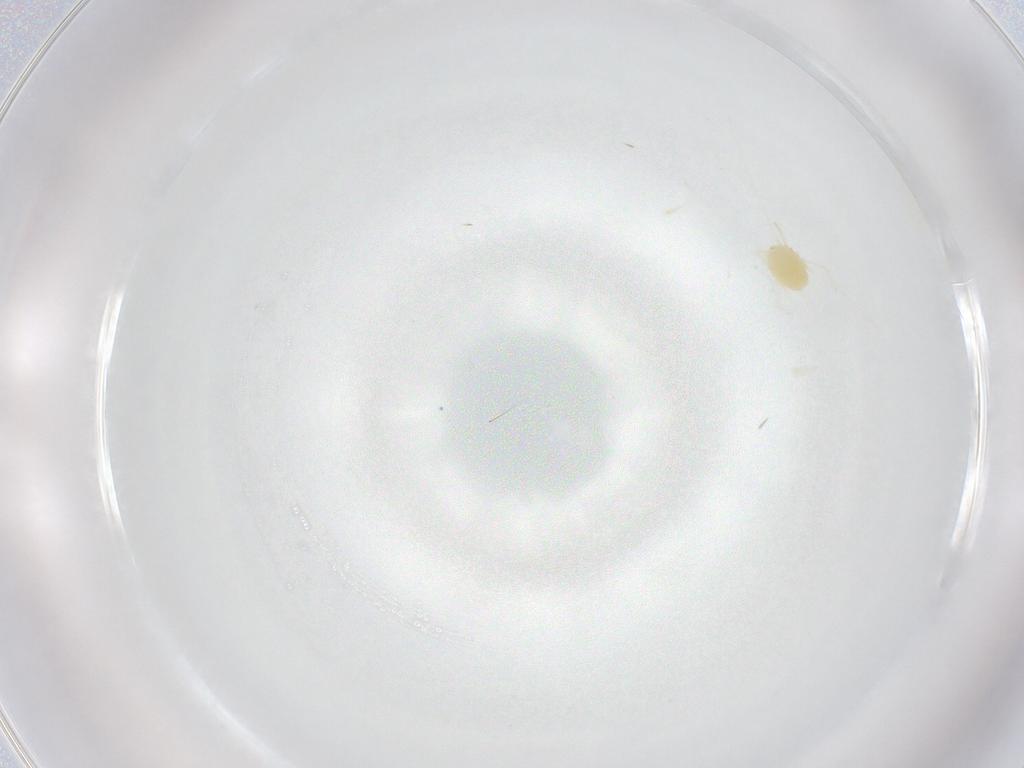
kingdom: Animalia
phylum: Arthropoda
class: Arachnida
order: Trombidiformes
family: Tetranychidae
